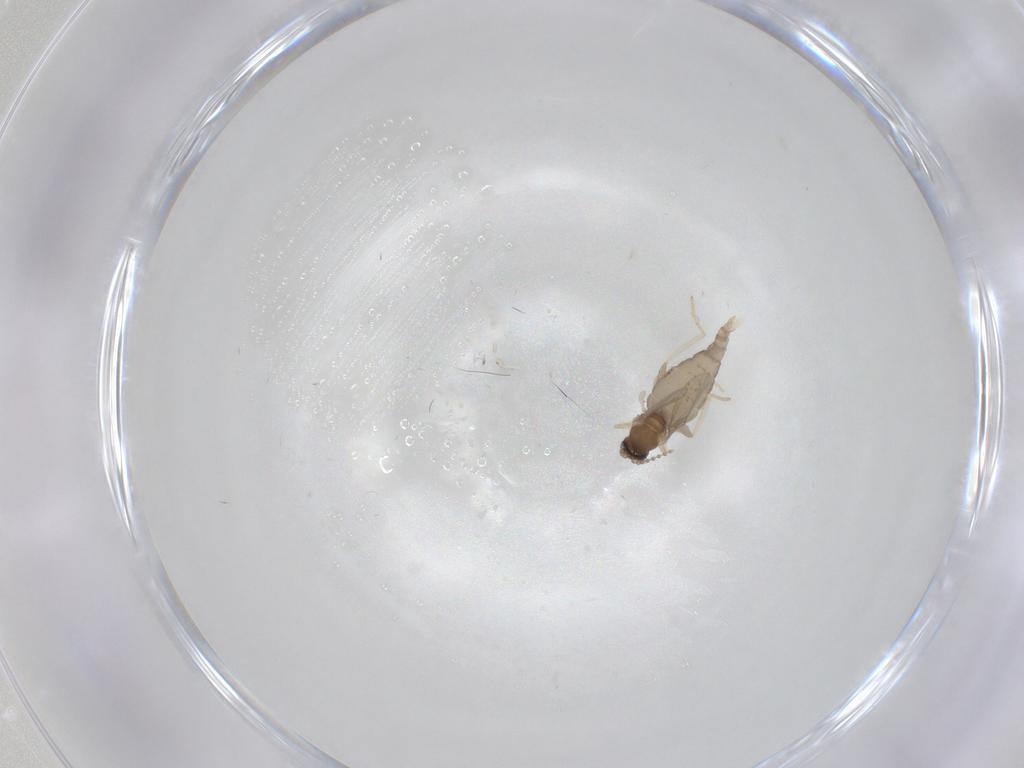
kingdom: Animalia
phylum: Arthropoda
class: Insecta
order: Diptera
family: Cecidomyiidae
